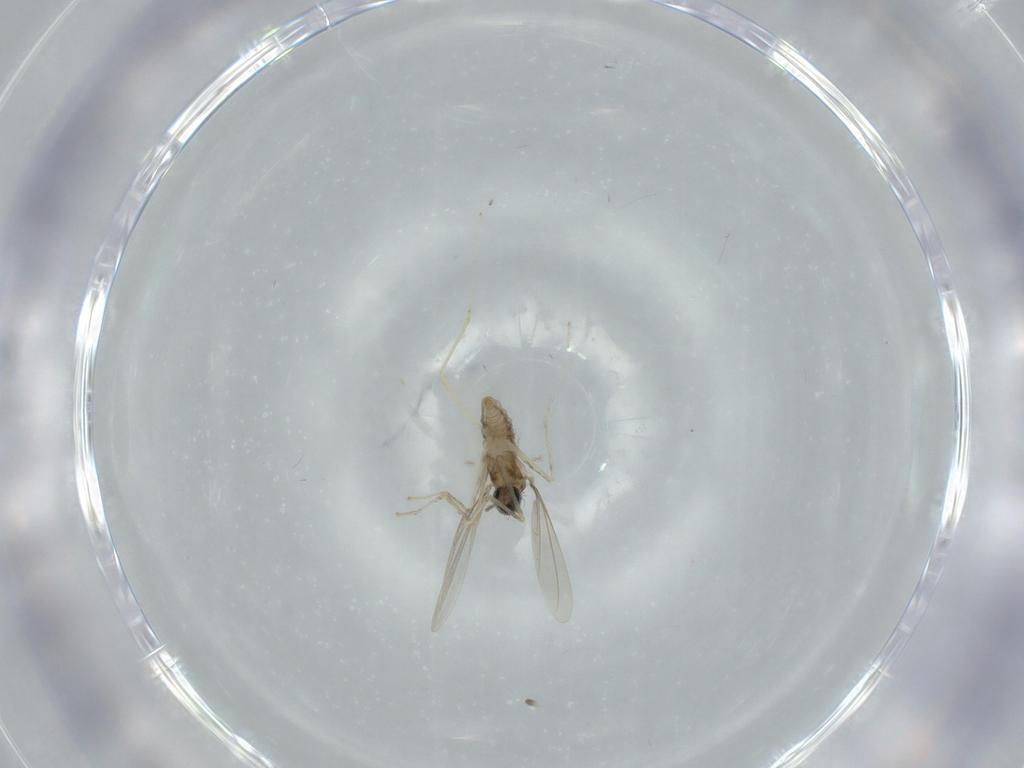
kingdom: Animalia
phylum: Arthropoda
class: Insecta
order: Diptera
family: Cecidomyiidae
